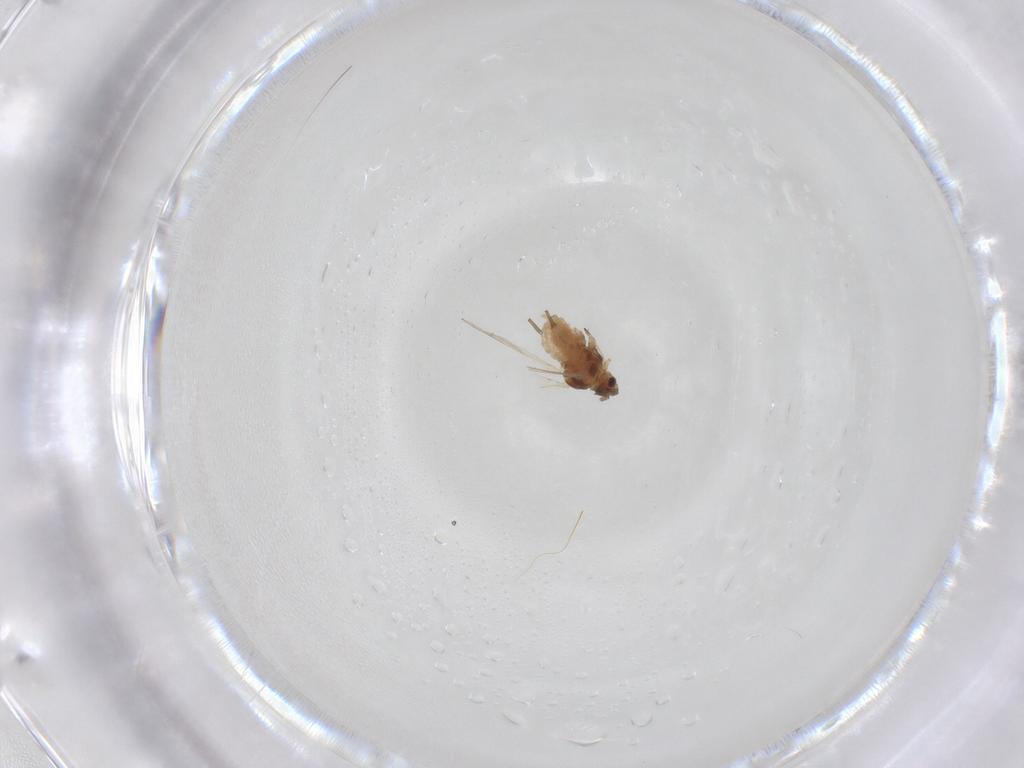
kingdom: Animalia
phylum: Arthropoda
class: Insecta
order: Hemiptera
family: Aphididae
